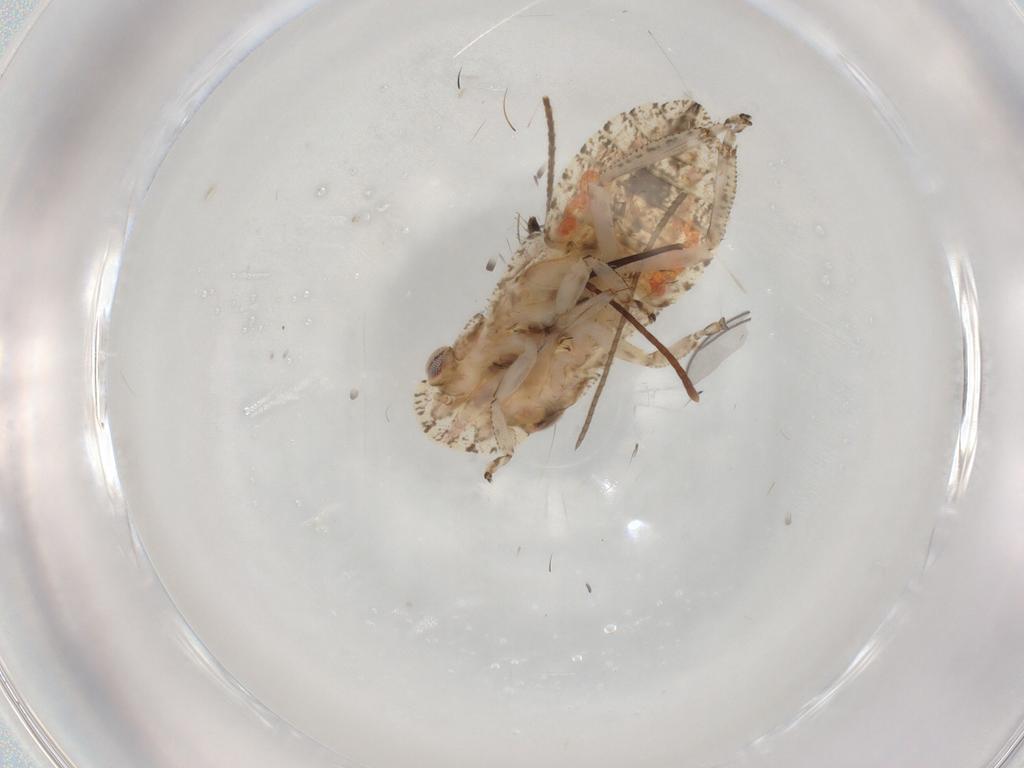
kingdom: Animalia
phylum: Arthropoda
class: Insecta
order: Hemiptera
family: Cicadellidae
